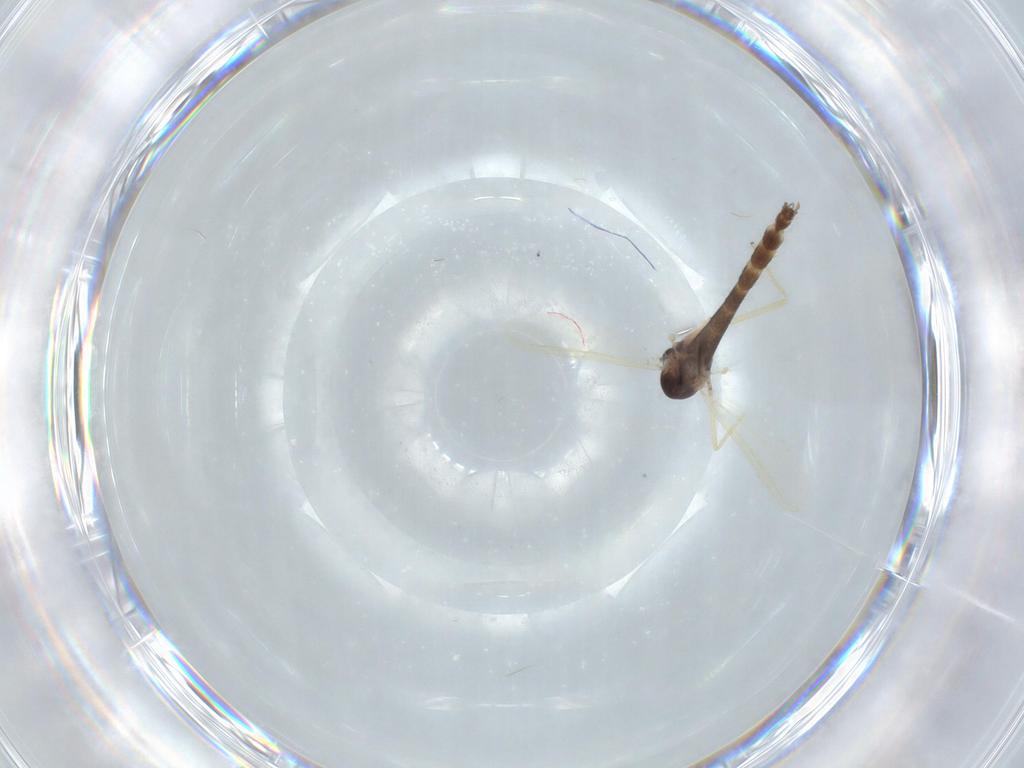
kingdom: Animalia
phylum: Arthropoda
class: Insecta
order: Diptera
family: Chironomidae
